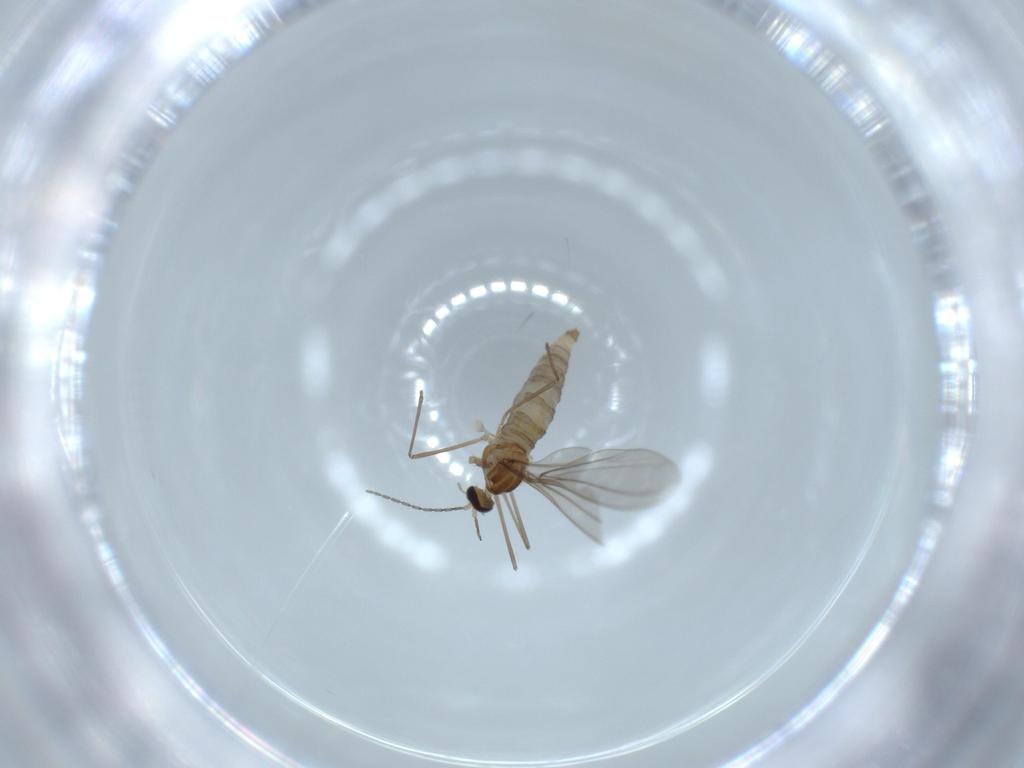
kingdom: Animalia
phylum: Arthropoda
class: Insecta
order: Diptera
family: Cecidomyiidae
